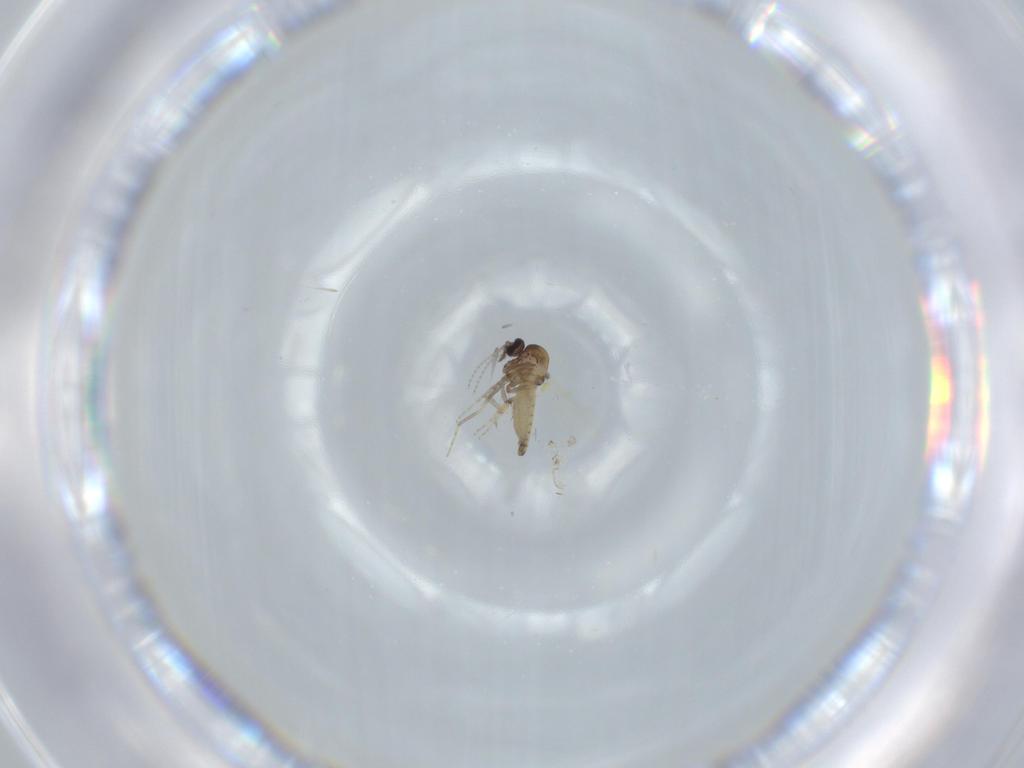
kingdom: Animalia
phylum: Arthropoda
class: Insecta
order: Diptera
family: Ceratopogonidae
